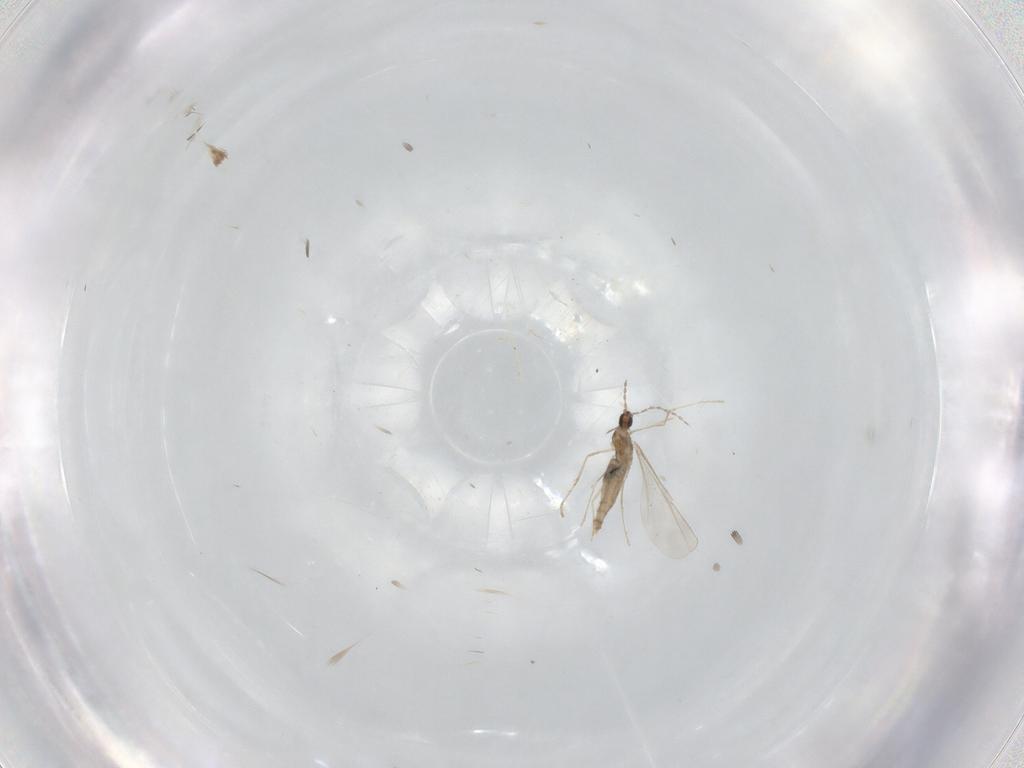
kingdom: Animalia
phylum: Arthropoda
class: Insecta
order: Diptera
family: Cecidomyiidae
